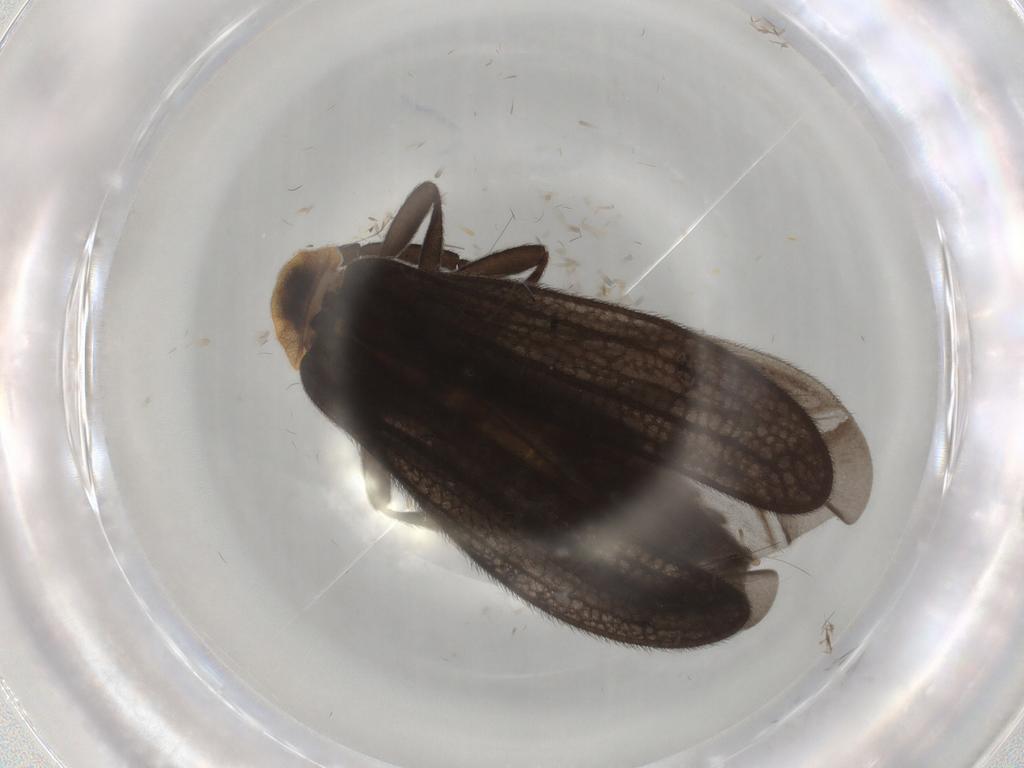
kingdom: Animalia
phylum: Arthropoda
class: Insecta
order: Coleoptera
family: Lycidae
